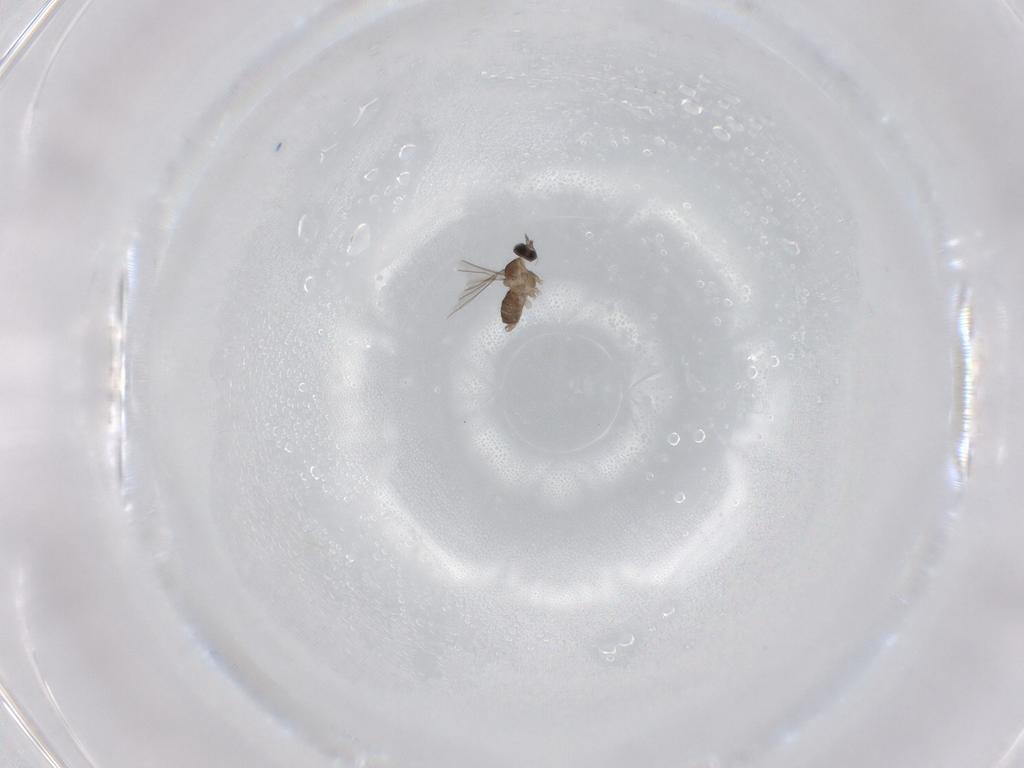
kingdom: Animalia
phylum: Arthropoda
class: Insecta
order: Diptera
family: Cecidomyiidae
